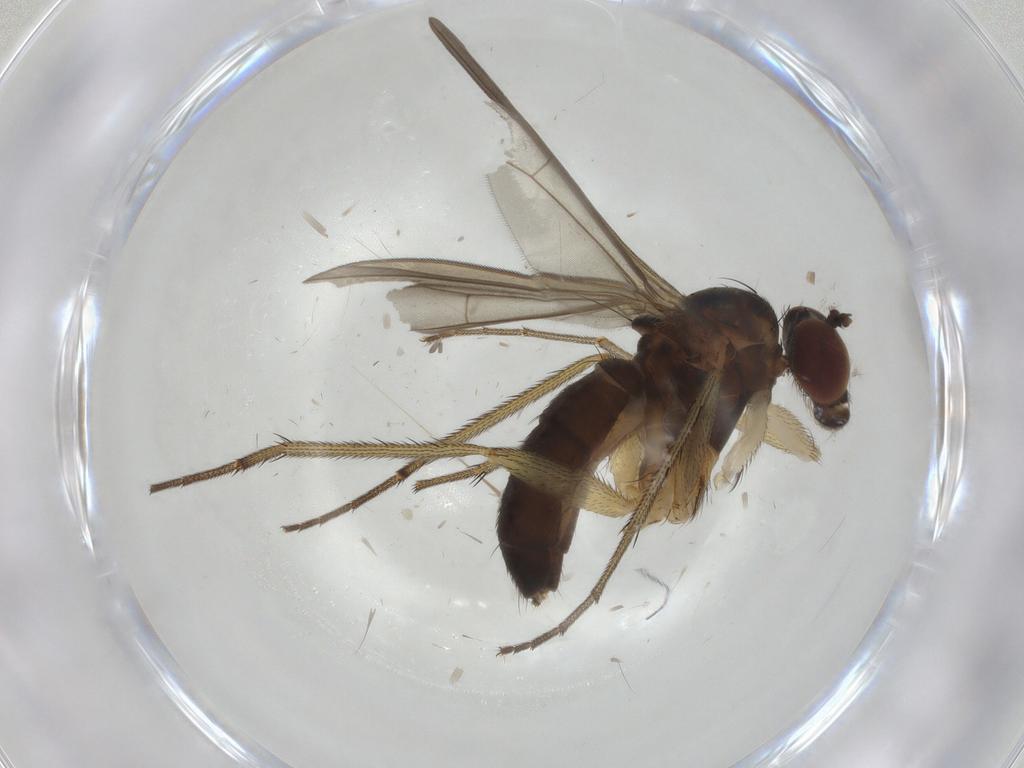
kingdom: Animalia
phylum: Arthropoda
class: Insecta
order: Diptera
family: Dolichopodidae
